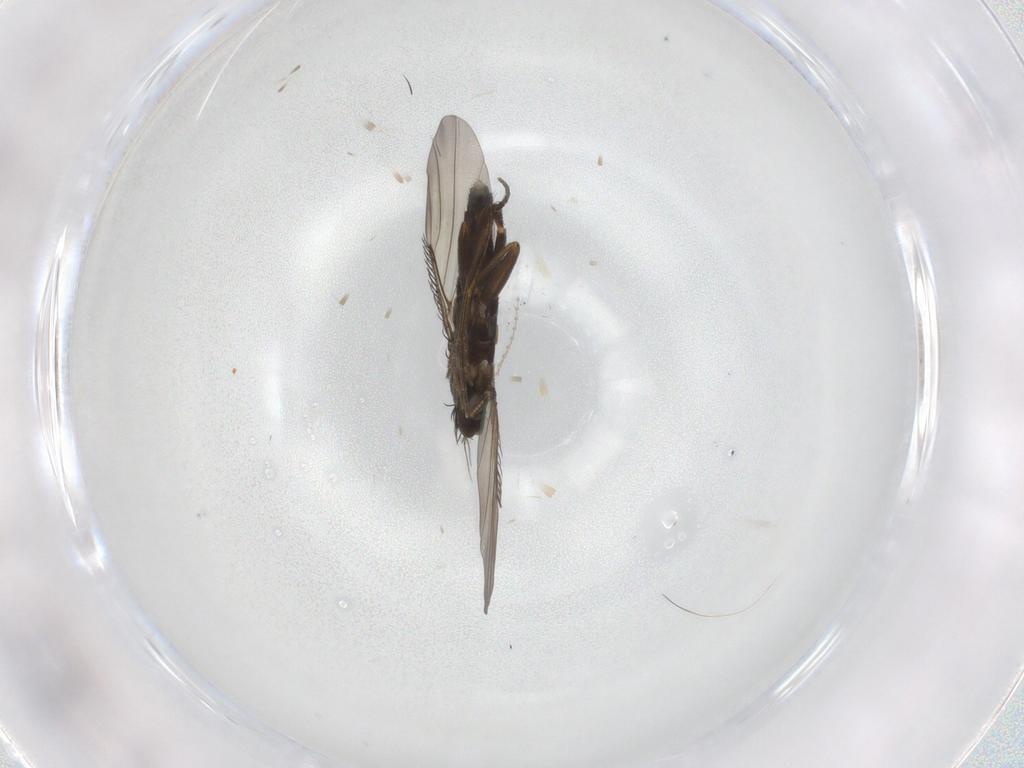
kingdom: Animalia
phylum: Arthropoda
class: Insecta
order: Diptera
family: Phoridae
